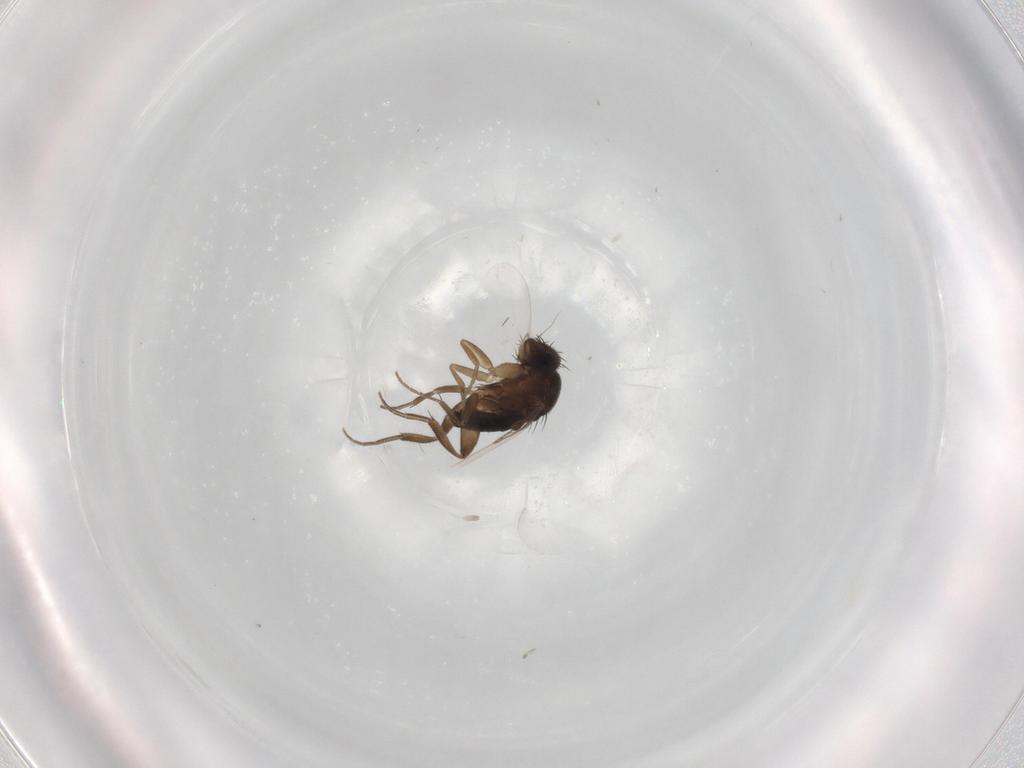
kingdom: Animalia
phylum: Arthropoda
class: Insecta
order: Diptera
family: Phoridae
